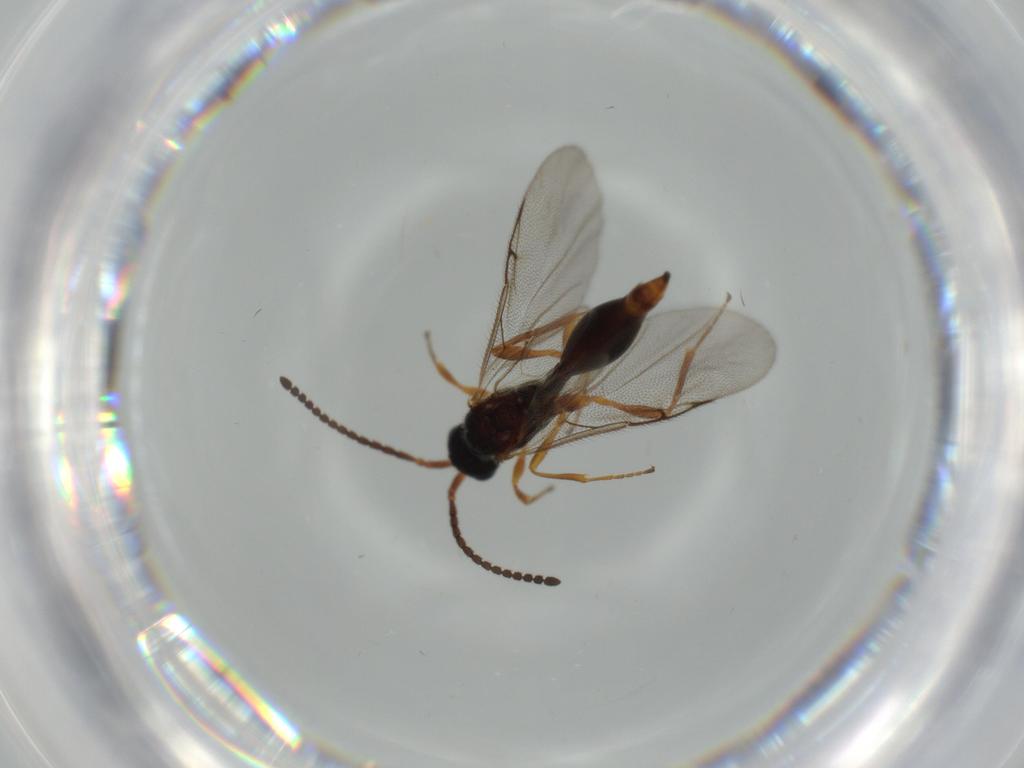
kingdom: Animalia
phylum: Arthropoda
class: Insecta
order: Hymenoptera
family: Diapriidae
